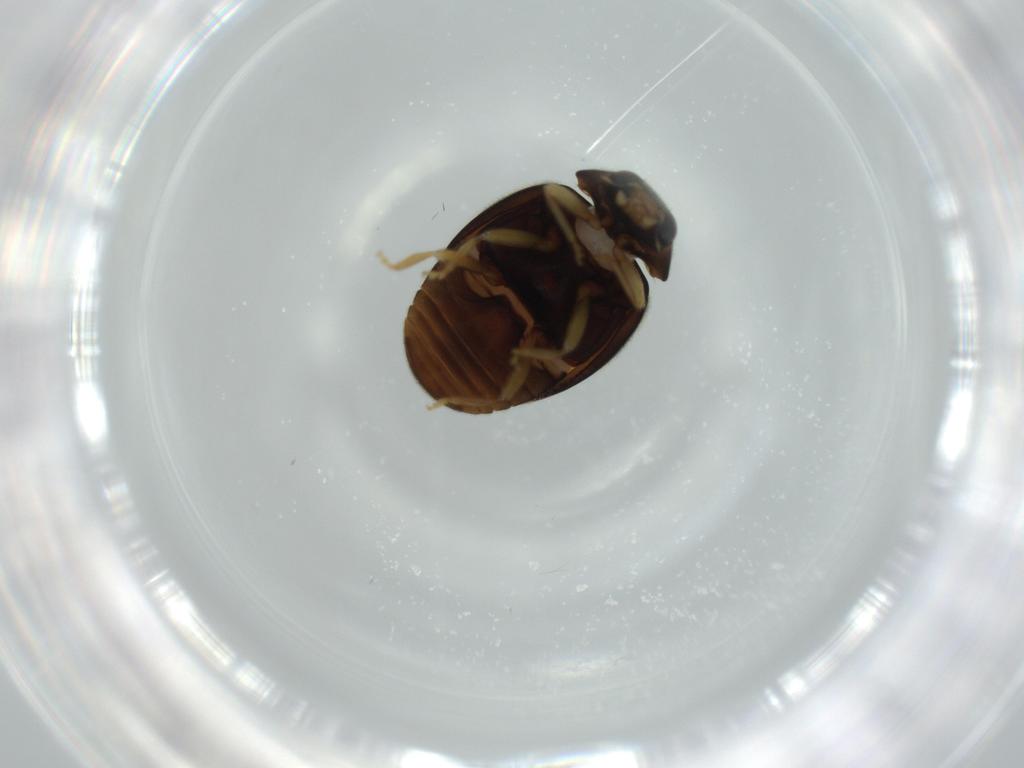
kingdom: Animalia
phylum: Arthropoda
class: Insecta
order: Coleoptera
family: Coccinellidae
